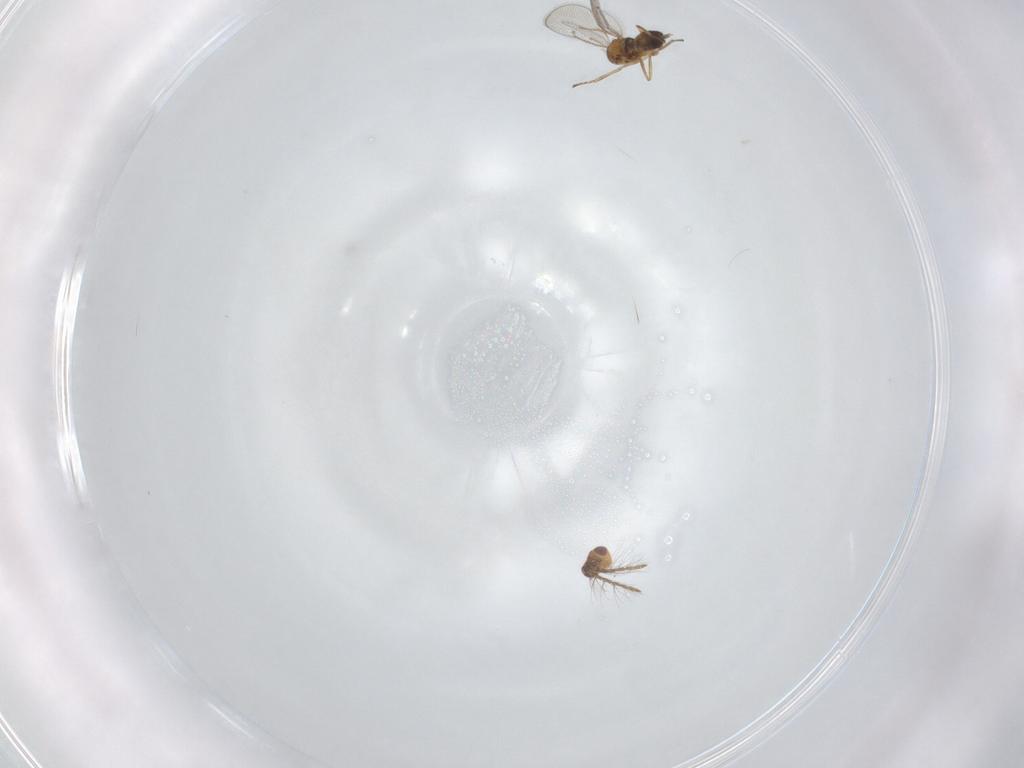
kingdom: Animalia
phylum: Arthropoda
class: Insecta
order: Hymenoptera
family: Eulophidae
